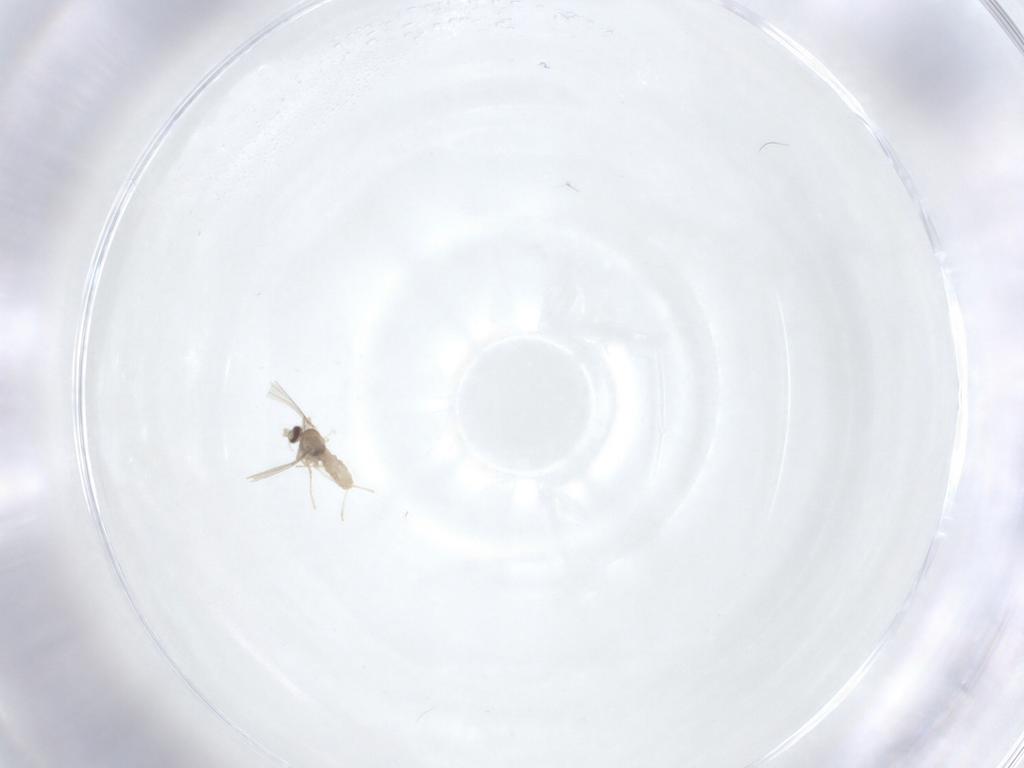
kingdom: Animalia
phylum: Arthropoda
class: Insecta
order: Diptera
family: Cecidomyiidae
